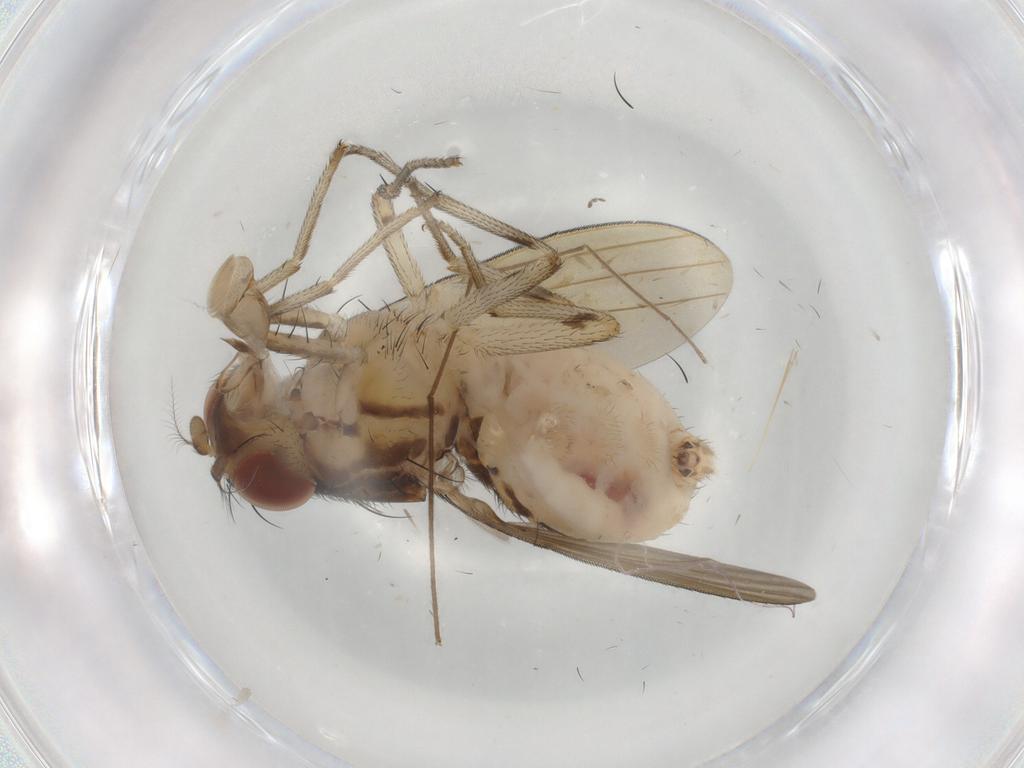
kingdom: Animalia
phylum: Arthropoda
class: Insecta
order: Diptera
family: Chironomidae
